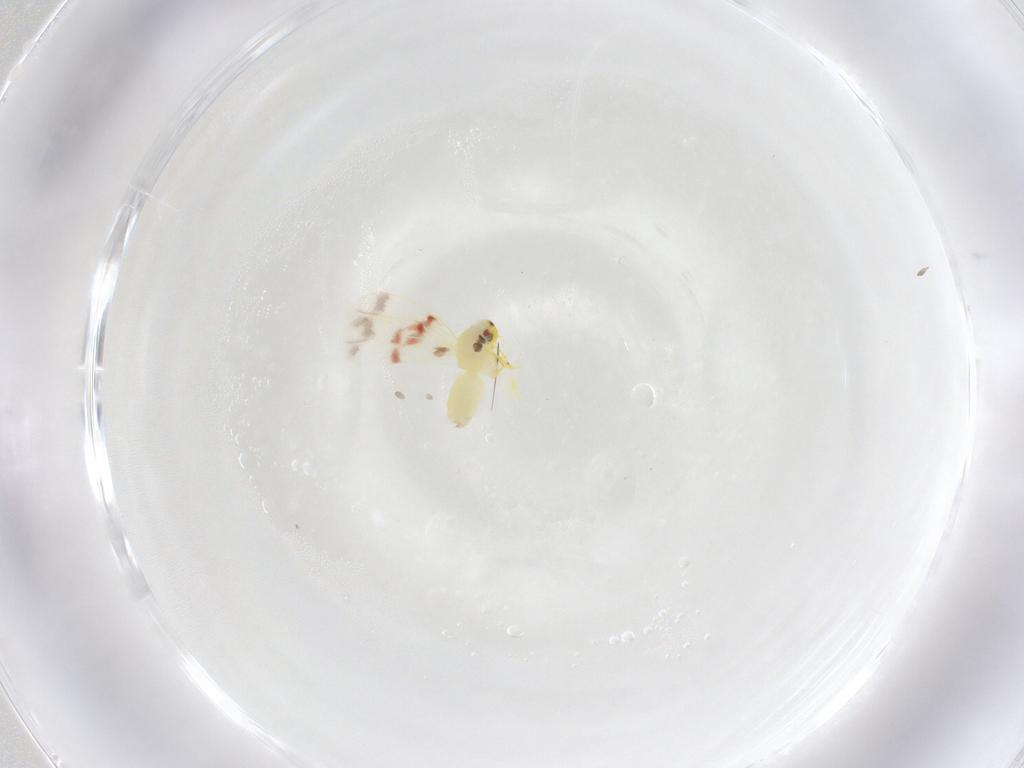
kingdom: Animalia
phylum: Arthropoda
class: Insecta
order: Hemiptera
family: Aleyrodidae
